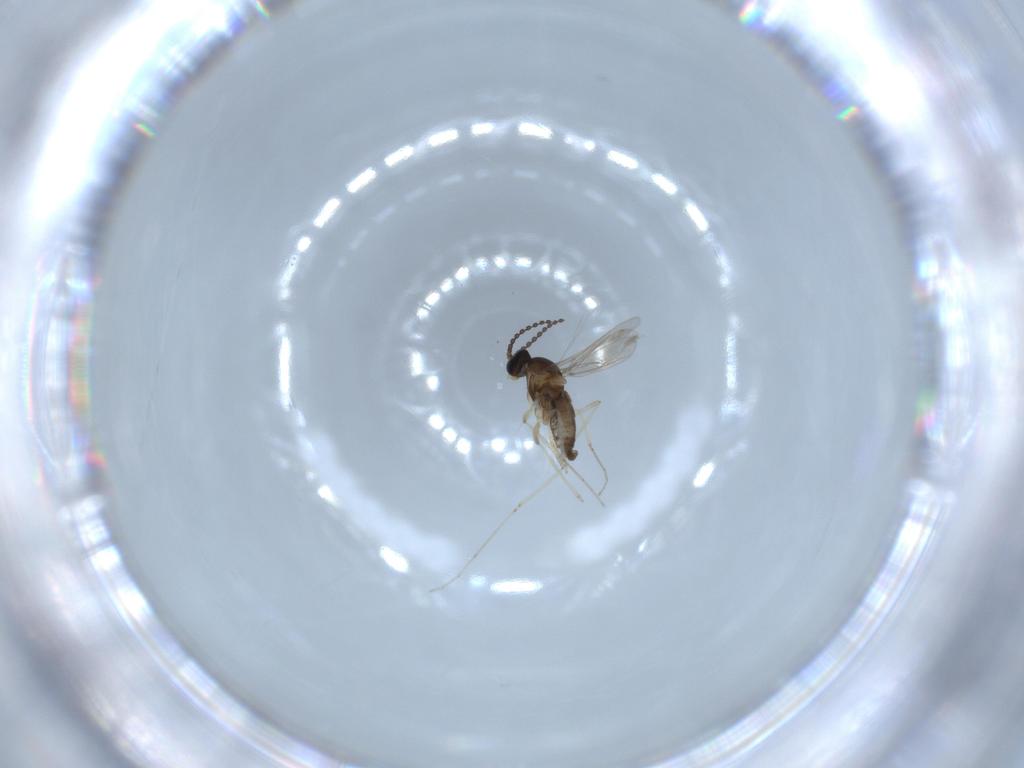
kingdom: Animalia
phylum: Arthropoda
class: Insecta
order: Diptera
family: Cecidomyiidae
